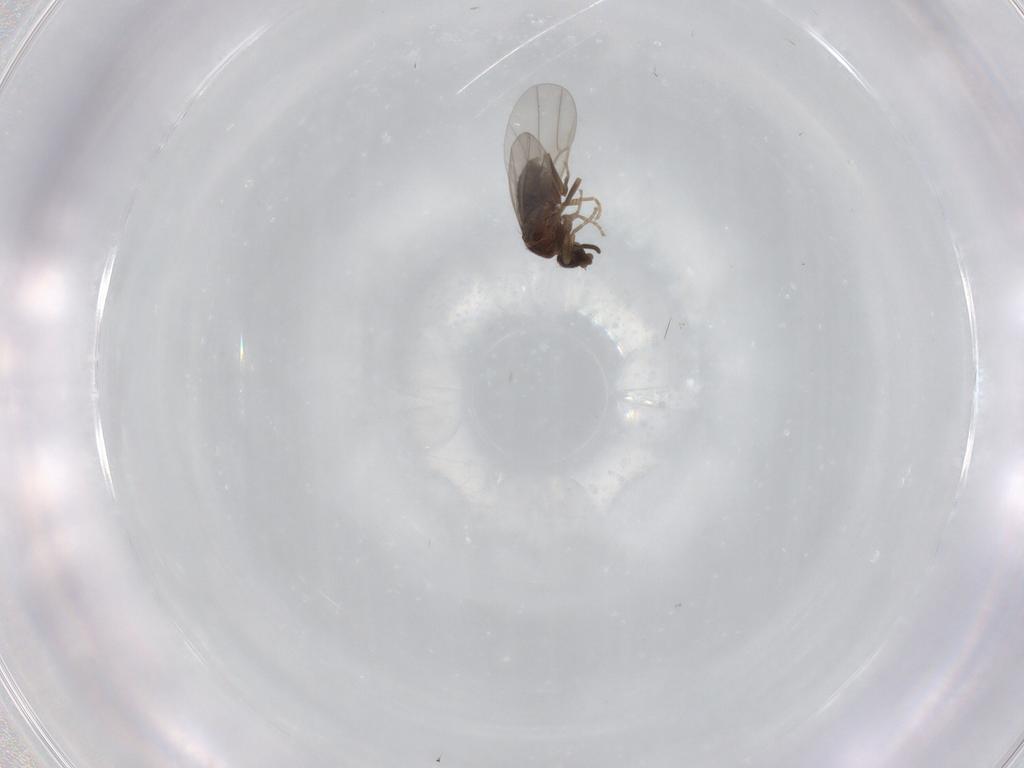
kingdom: Animalia
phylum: Arthropoda
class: Insecta
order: Diptera
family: Phoridae
